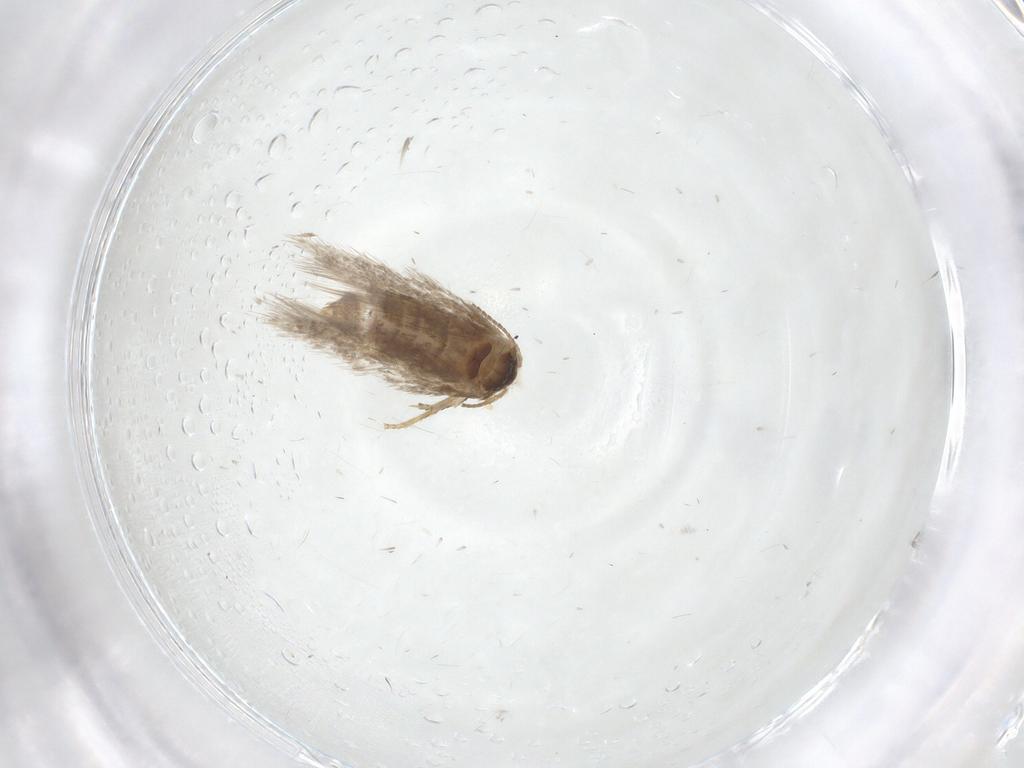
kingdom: Animalia
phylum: Arthropoda
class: Insecta
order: Lepidoptera
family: Nepticulidae
